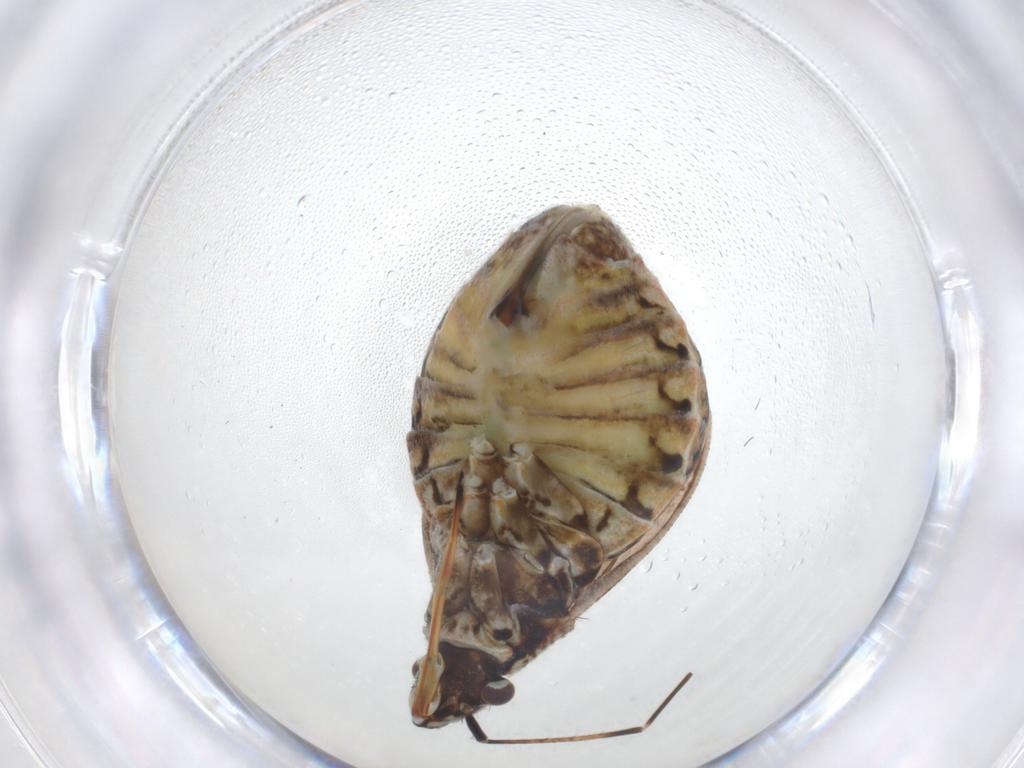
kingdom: Animalia
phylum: Arthropoda
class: Insecta
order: Hemiptera
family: Miridae
